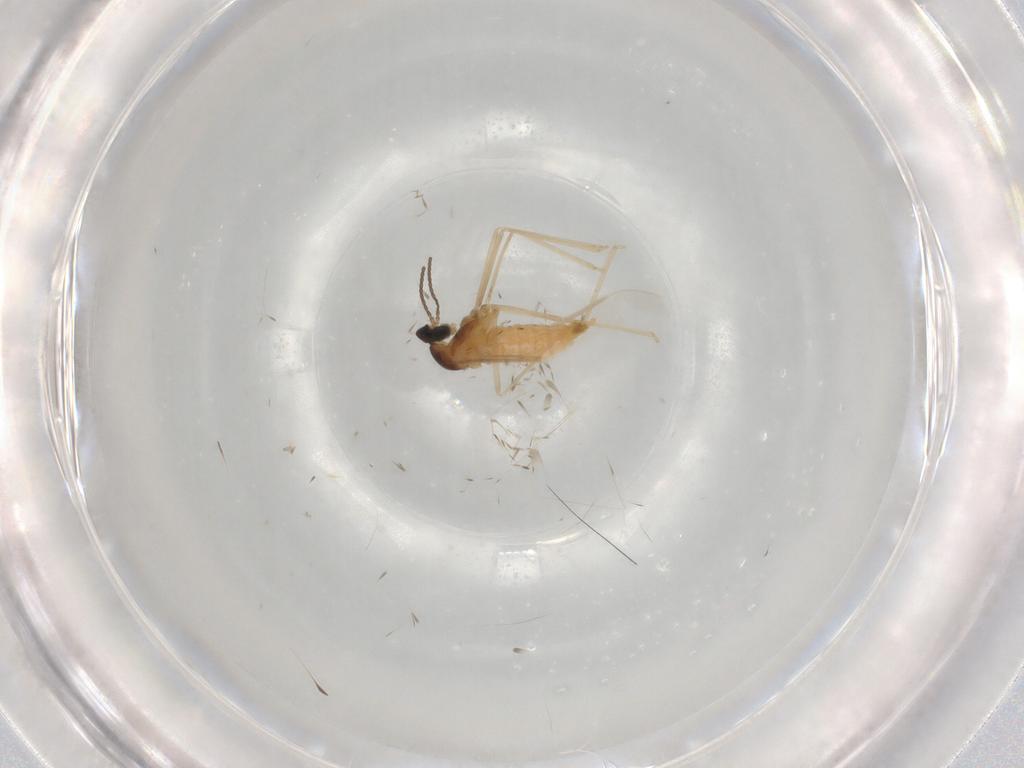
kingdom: Animalia
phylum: Arthropoda
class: Insecta
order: Diptera
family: Cecidomyiidae
